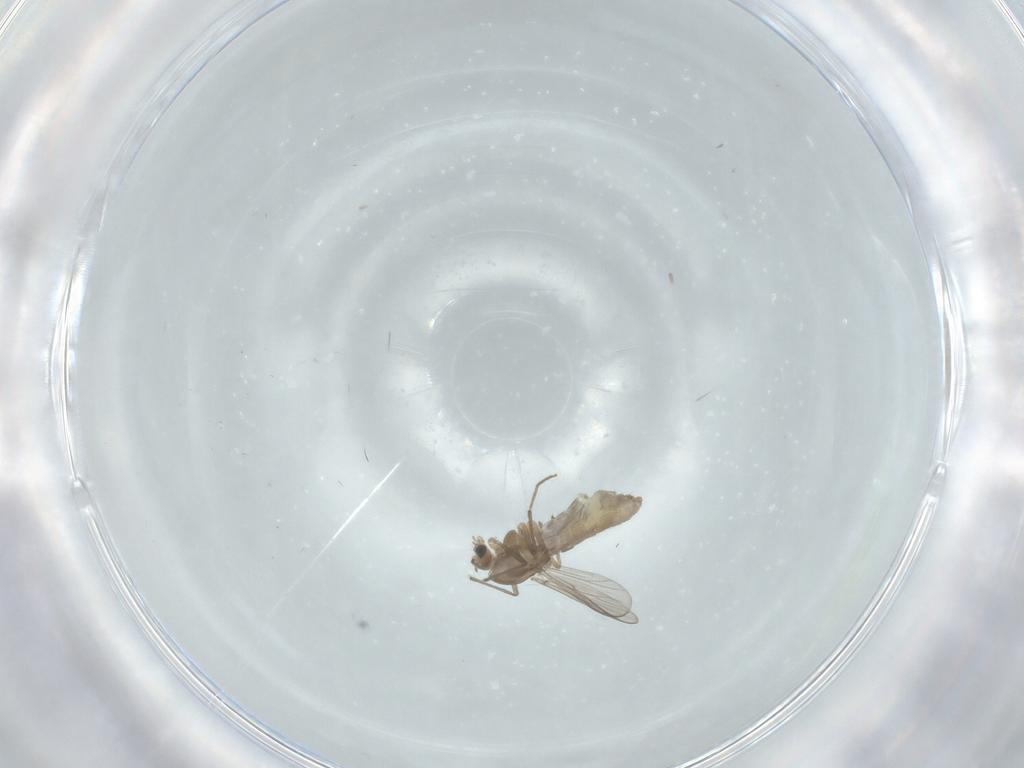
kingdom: Animalia
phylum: Arthropoda
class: Insecta
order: Diptera
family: Chironomidae
